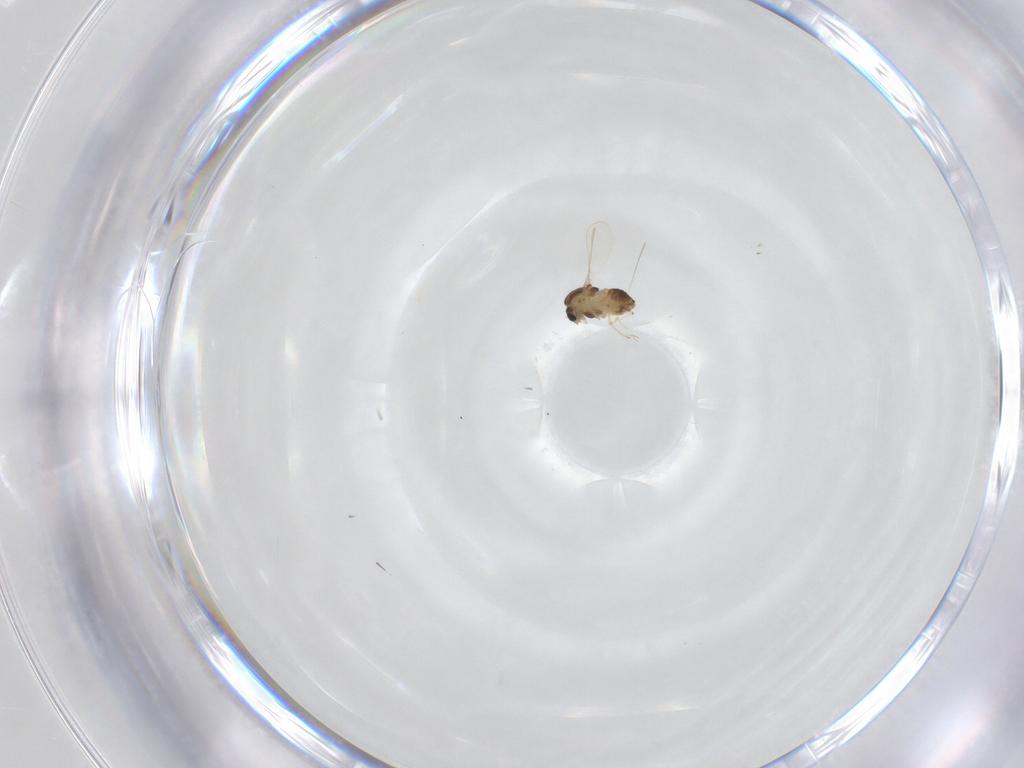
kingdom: Animalia
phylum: Arthropoda
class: Insecta
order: Diptera
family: Chironomidae
